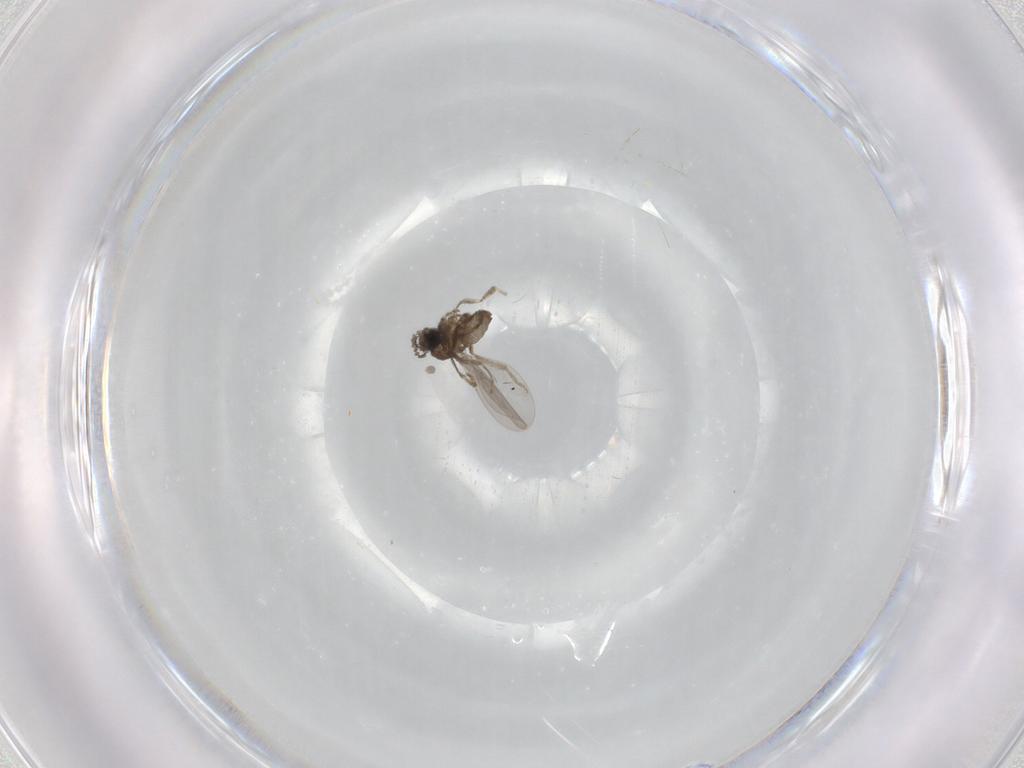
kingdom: Animalia
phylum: Arthropoda
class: Insecta
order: Diptera
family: Cecidomyiidae
